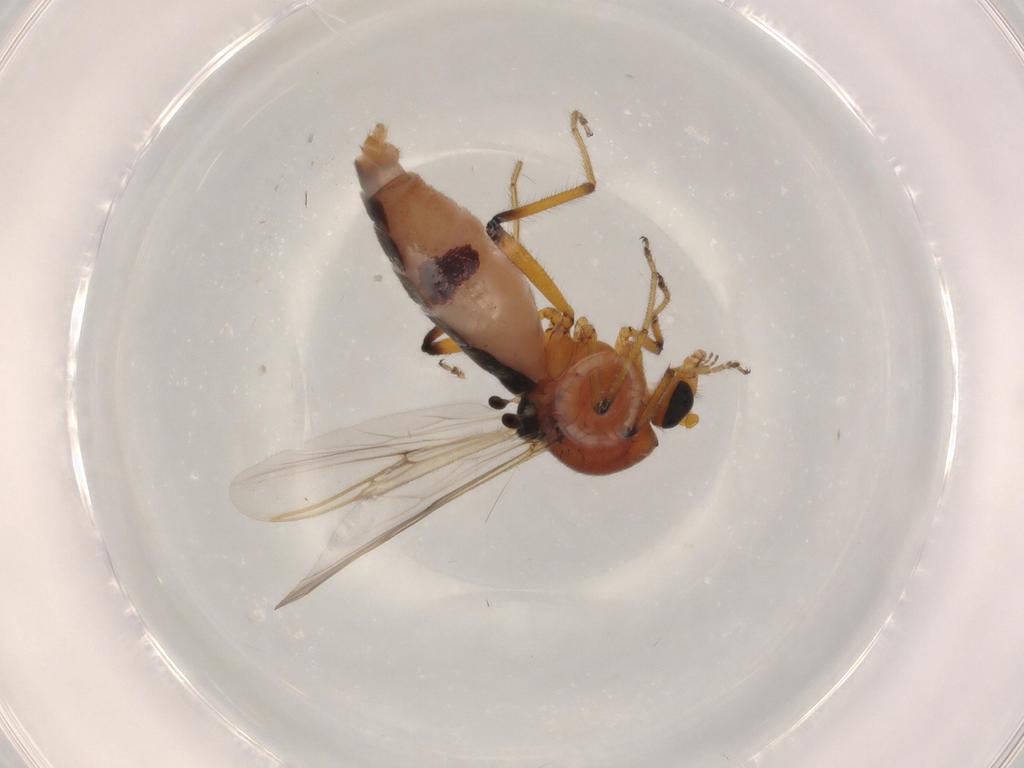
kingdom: Animalia
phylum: Arthropoda
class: Insecta
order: Diptera
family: Ceratopogonidae
